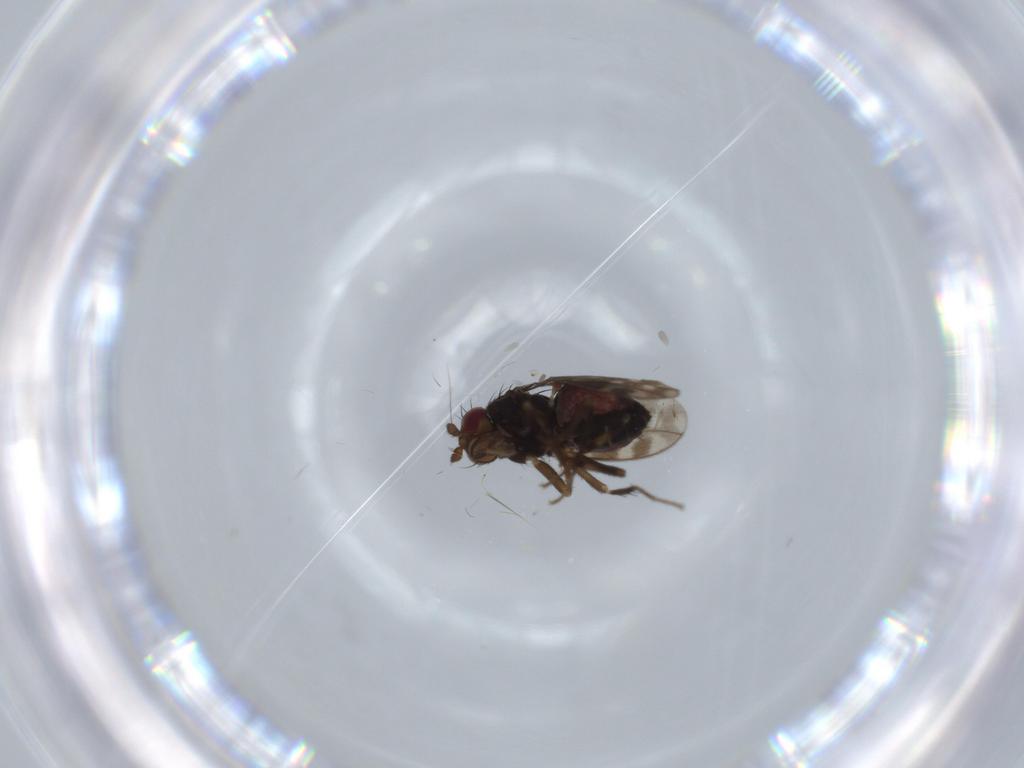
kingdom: Animalia
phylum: Arthropoda
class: Insecta
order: Diptera
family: Sphaeroceridae
